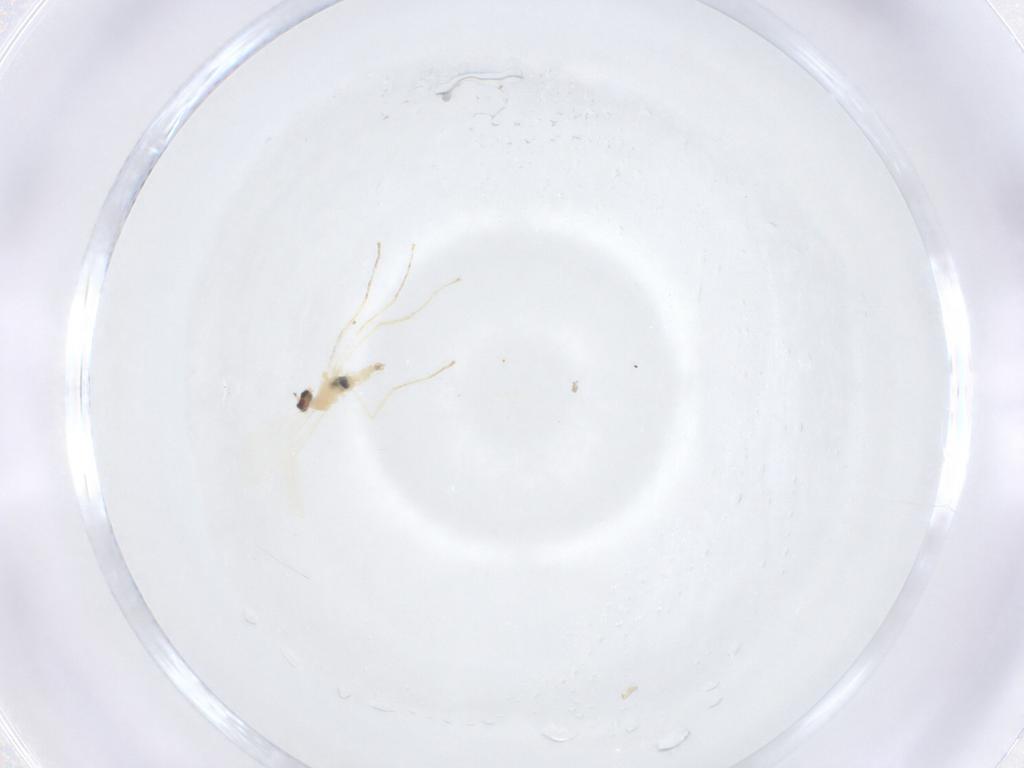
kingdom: Animalia
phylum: Arthropoda
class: Insecta
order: Diptera
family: Cecidomyiidae
